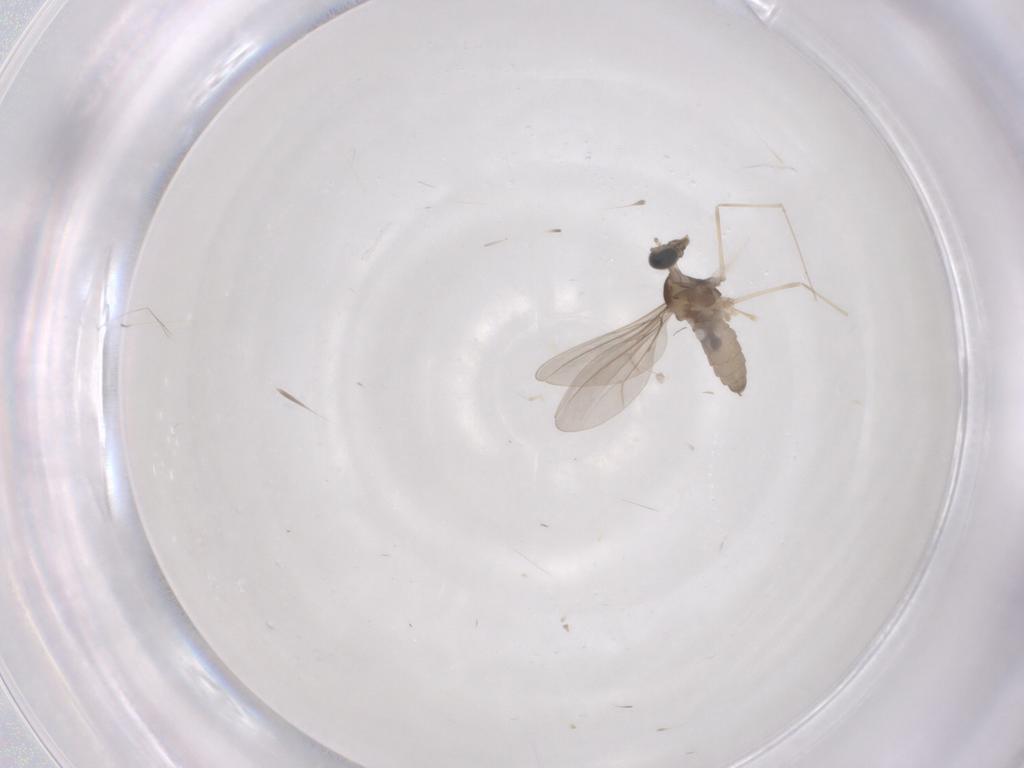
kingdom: Animalia
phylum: Arthropoda
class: Insecta
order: Diptera
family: Cecidomyiidae
